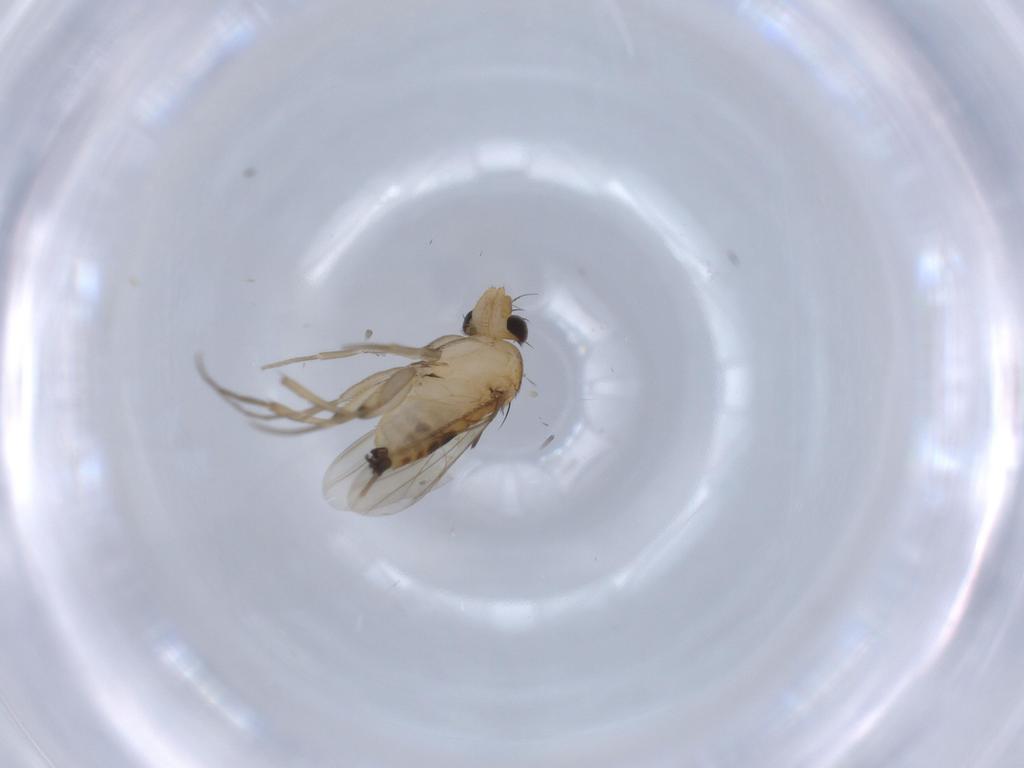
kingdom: Animalia
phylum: Arthropoda
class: Insecta
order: Diptera
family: Phoridae
